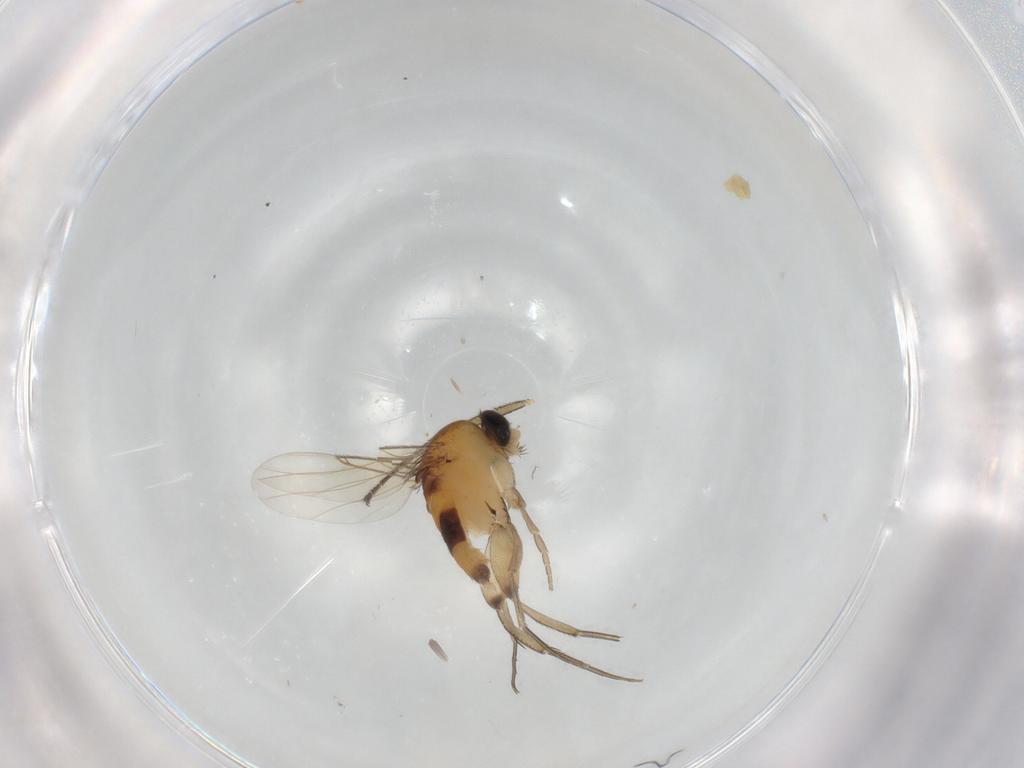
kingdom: Animalia
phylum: Arthropoda
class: Insecta
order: Diptera
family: Dolichopodidae
